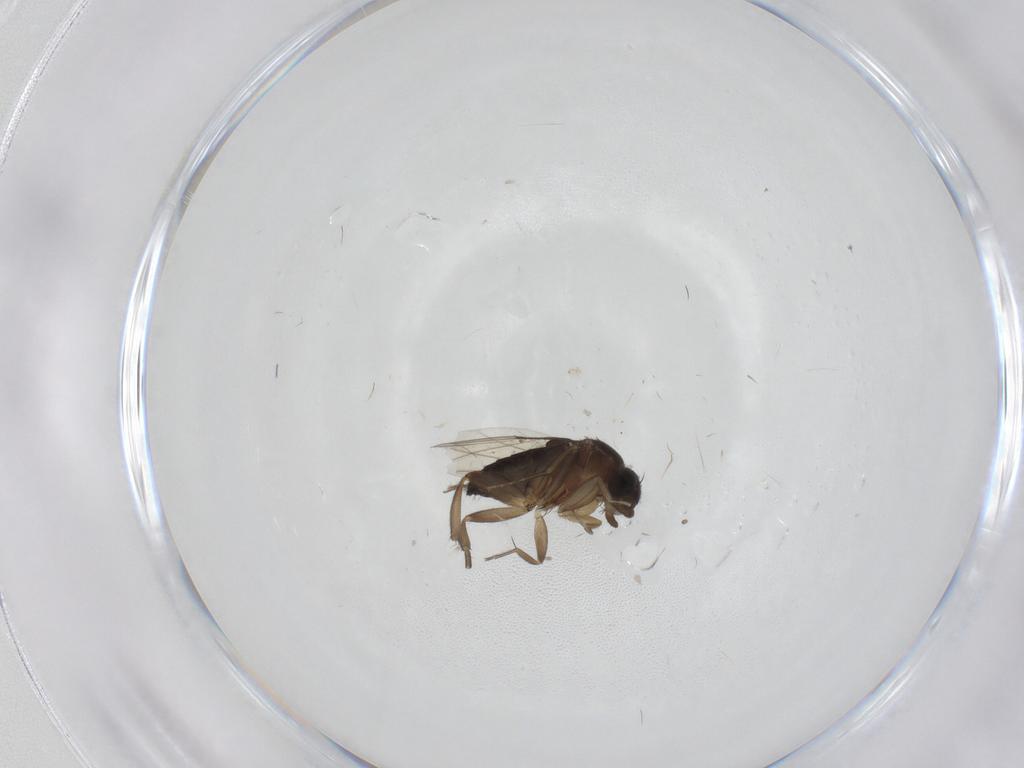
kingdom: Animalia
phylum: Arthropoda
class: Insecta
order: Diptera
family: Phoridae
